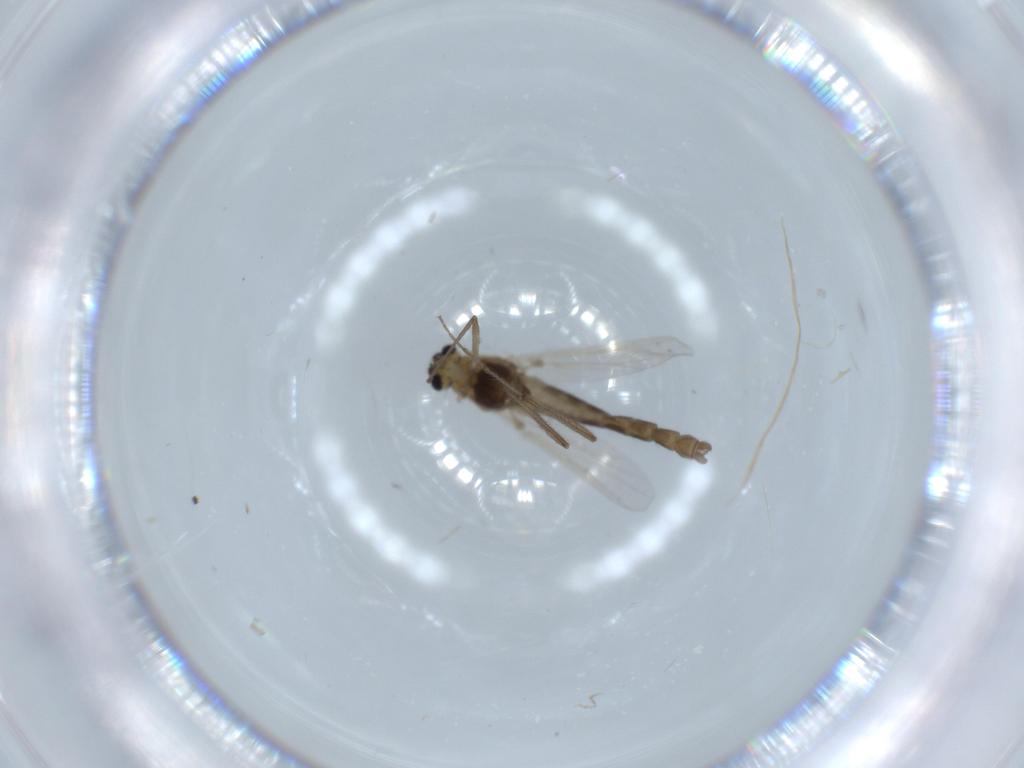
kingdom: Animalia
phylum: Arthropoda
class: Insecta
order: Diptera
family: Chironomidae
